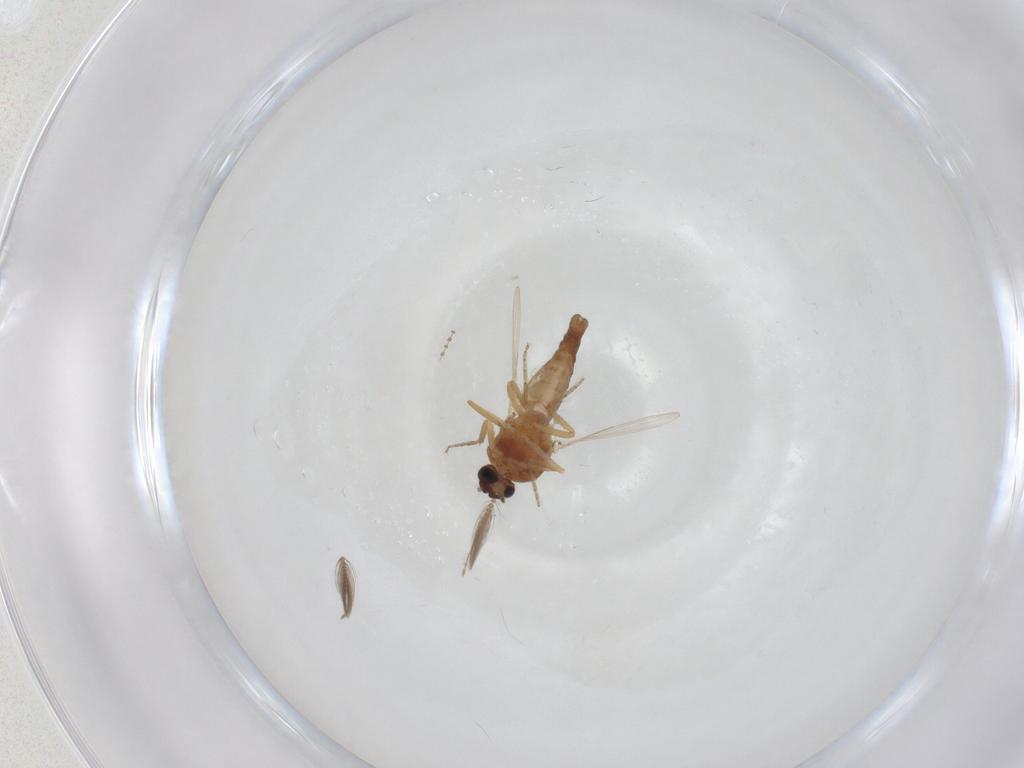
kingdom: Animalia
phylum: Arthropoda
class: Insecta
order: Diptera
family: Ceratopogonidae
